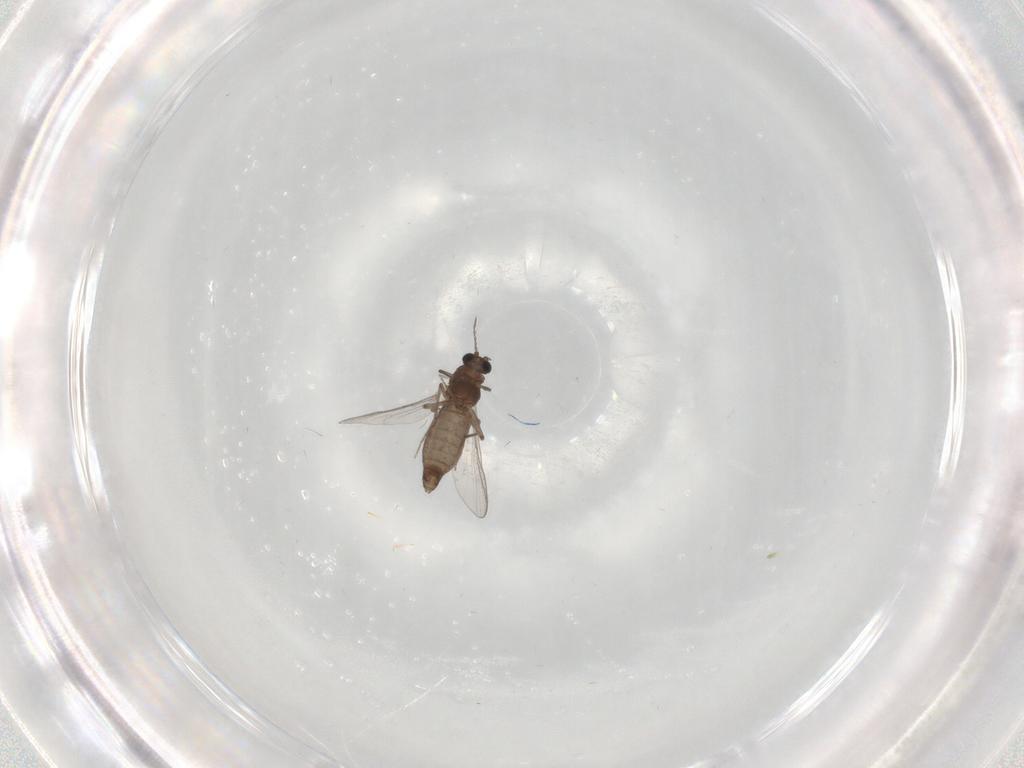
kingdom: Animalia
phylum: Arthropoda
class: Insecta
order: Diptera
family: Chironomidae
